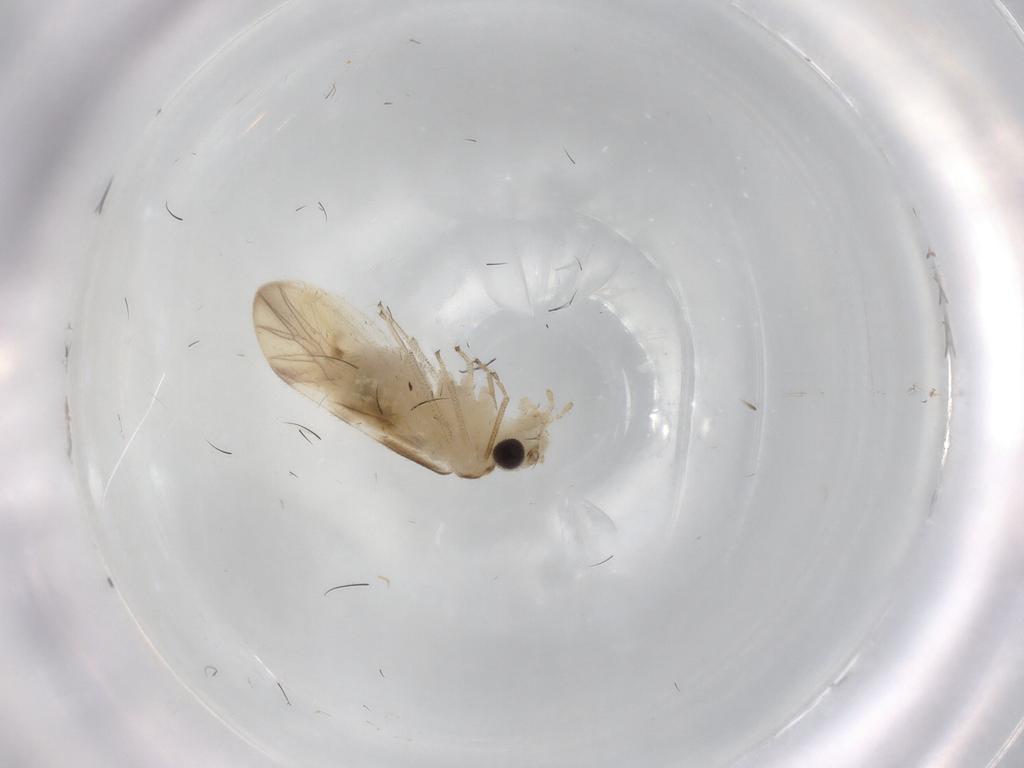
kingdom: Animalia
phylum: Arthropoda
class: Insecta
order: Psocodea
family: Caeciliusidae
